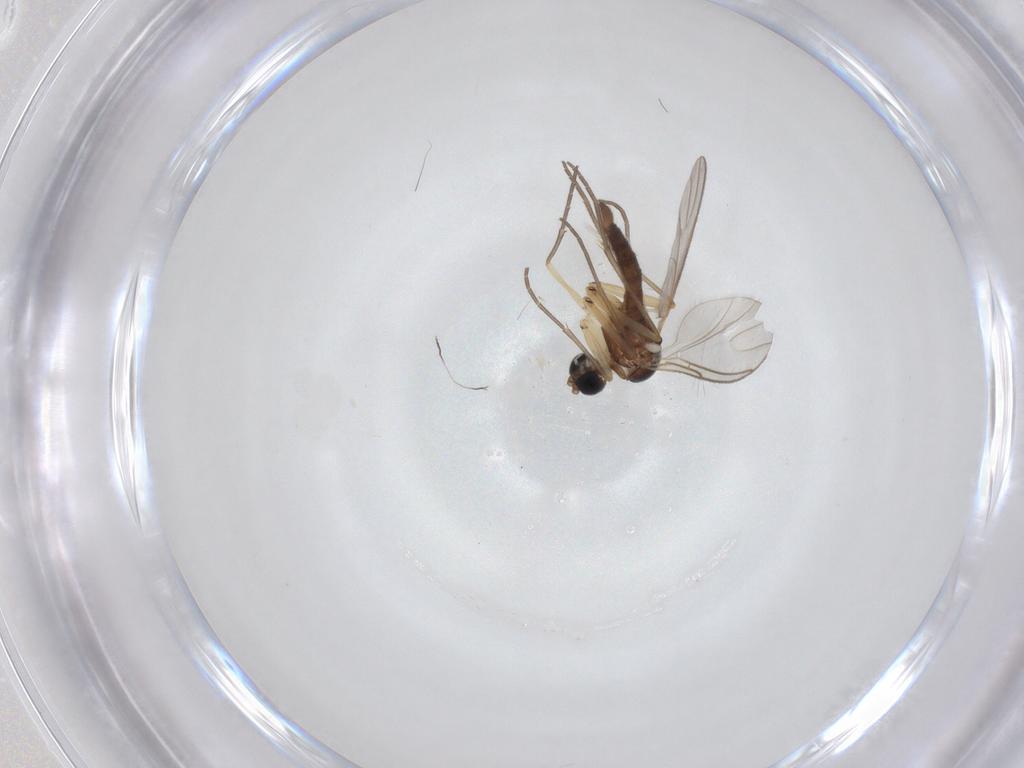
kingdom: Animalia
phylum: Arthropoda
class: Insecta
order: Diptera
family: Sciaridae
